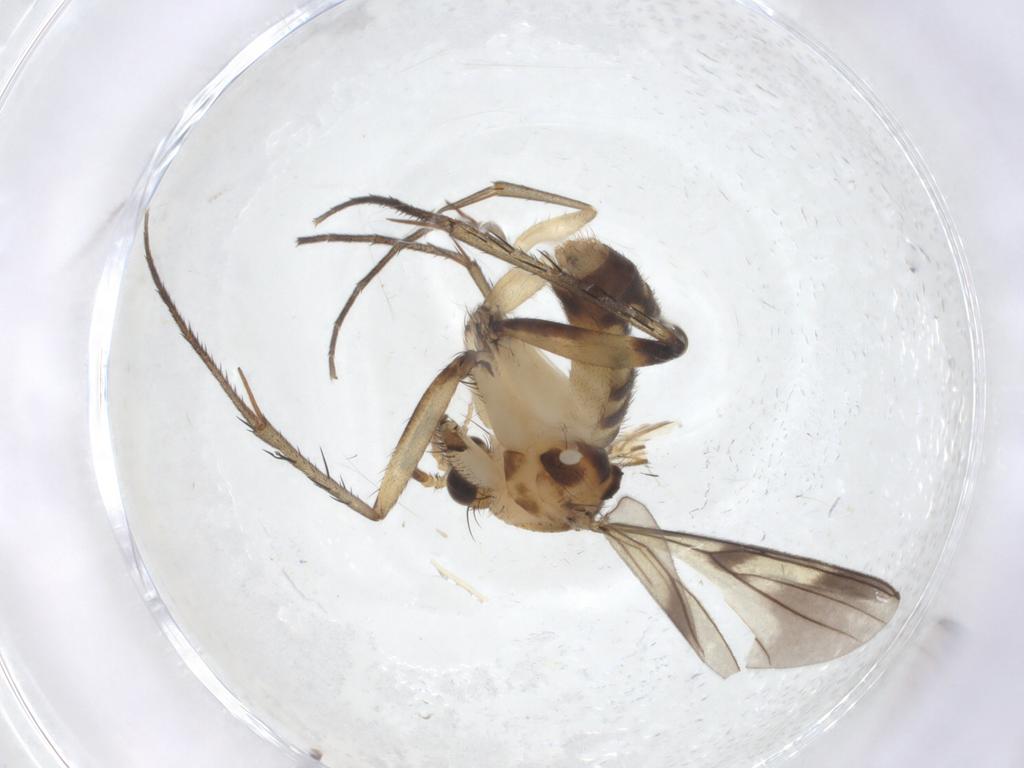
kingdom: Animalia
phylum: Arthropoda
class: Insecta
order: Diptera
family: Mycetophilidae
